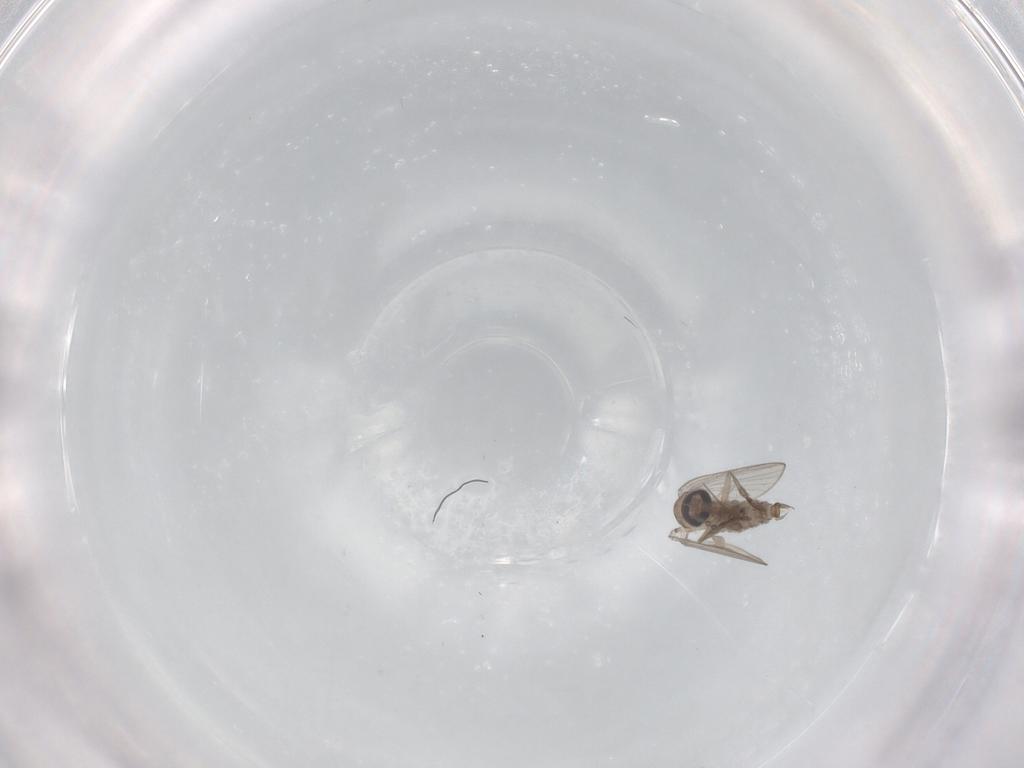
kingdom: Animalia
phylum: Arthropoda
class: Insecta
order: Diptera
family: Psychodidae
